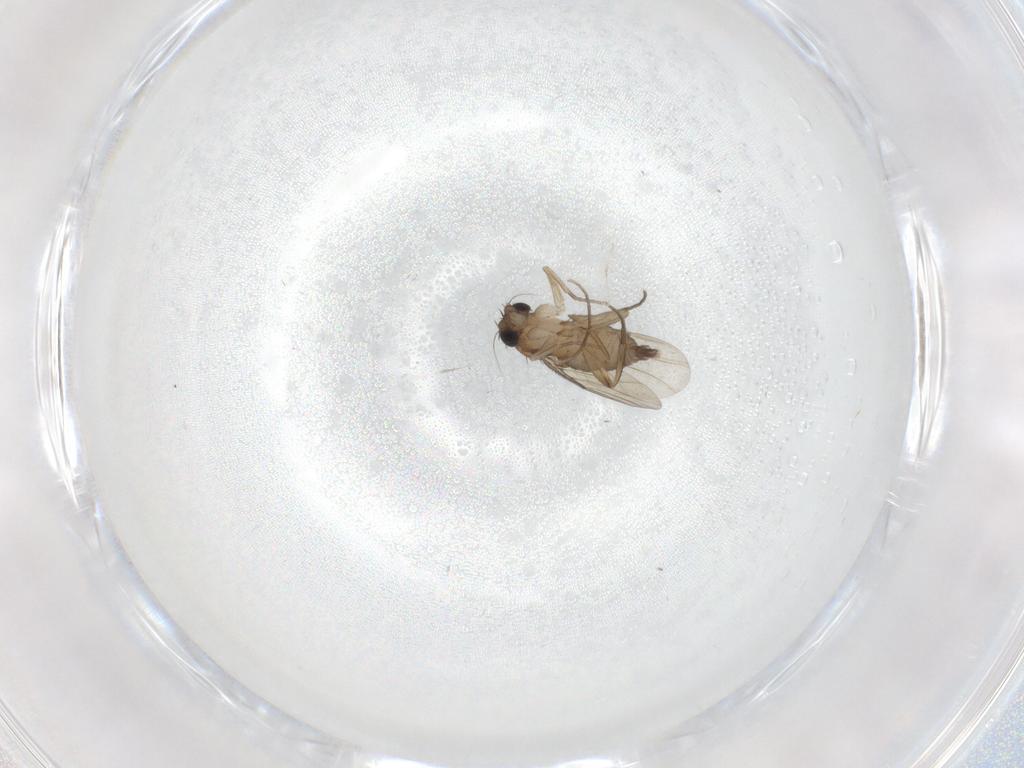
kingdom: Animalia
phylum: Arthropoda
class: Insecta
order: Diptera
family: Phoridae
